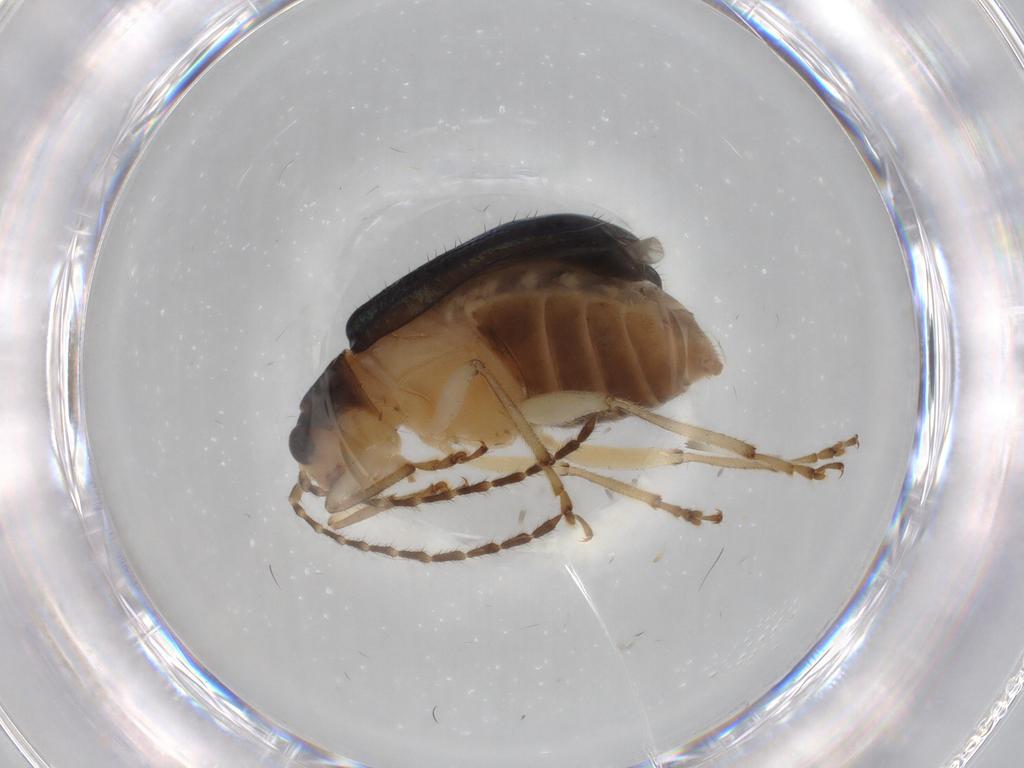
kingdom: Animalia
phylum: Arthropoda
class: Insecta
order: Coleoptera
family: Chrysomelidae
